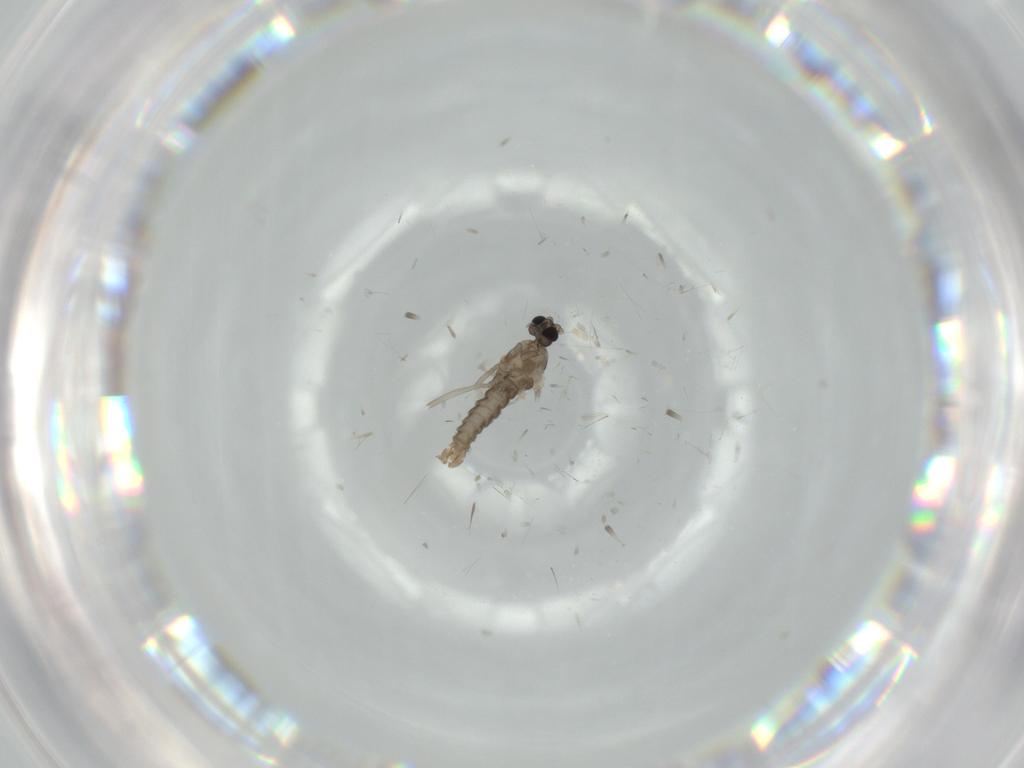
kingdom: Animalia
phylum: Arthropoda
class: Insecta
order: Diptera
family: Cecidomyiidae
